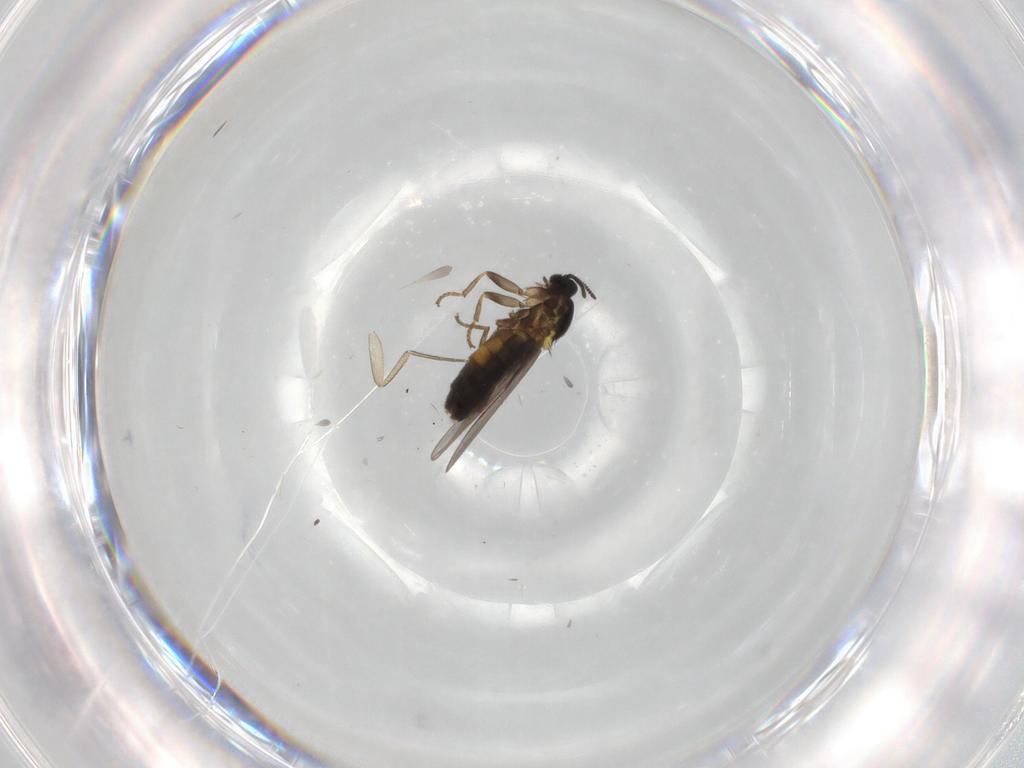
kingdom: Animalia
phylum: Arthropoda
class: Insecta
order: Diptera
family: Scatopsidae
